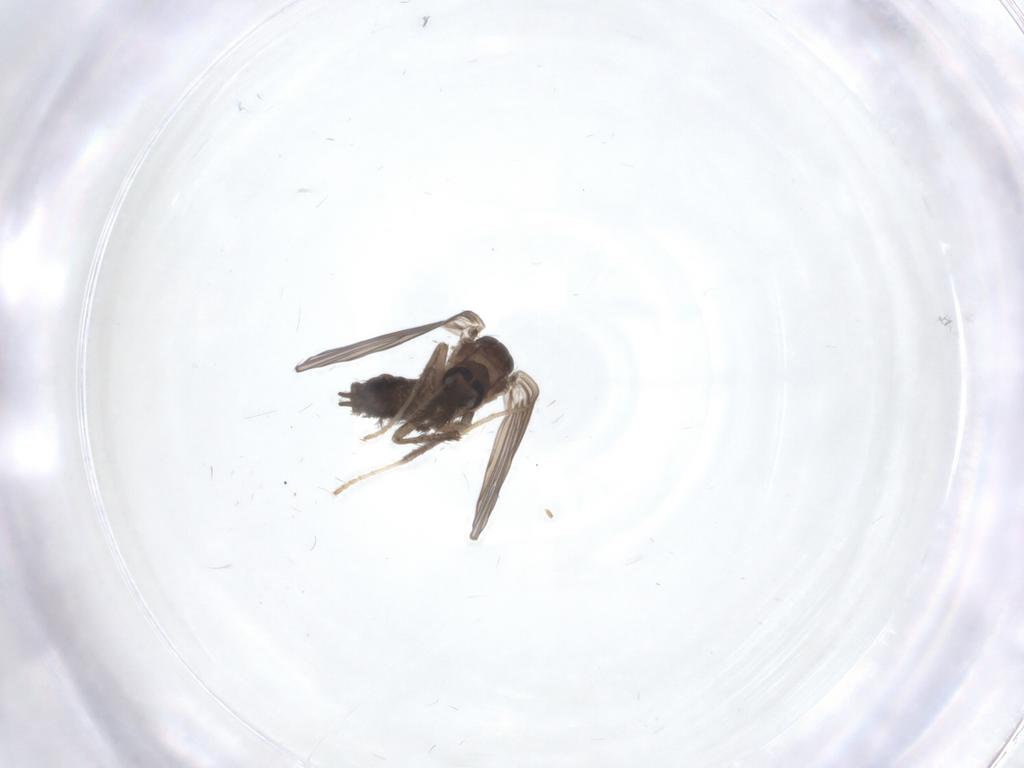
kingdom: Animalia
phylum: Arthropoda
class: Insecta
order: Diptera
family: Psychodidae
